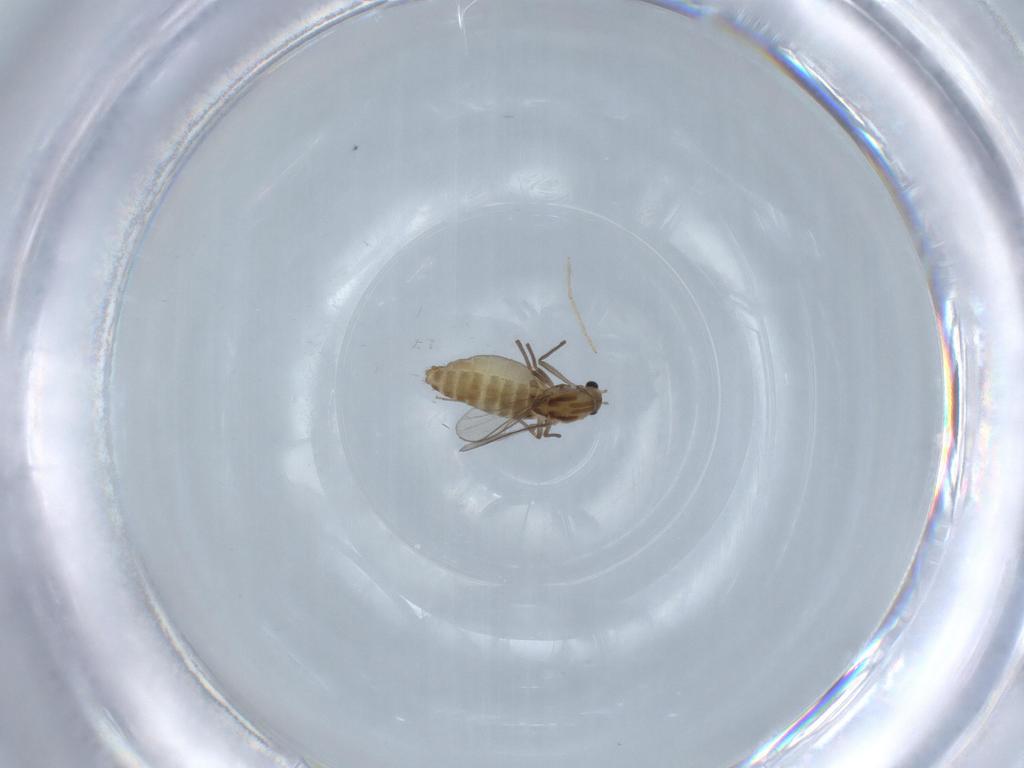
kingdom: Animalia
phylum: Arthropoda
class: Insecta
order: Diptera
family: Chironomidae
